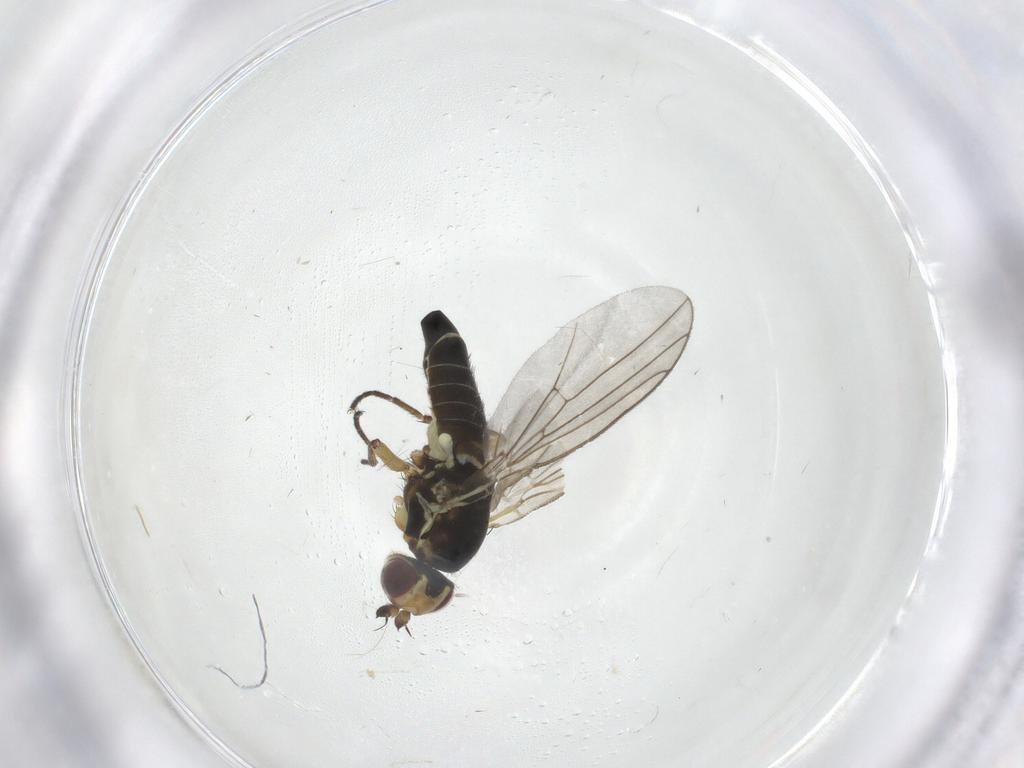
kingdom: Animalia
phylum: Arthropoda
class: Insecta
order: Diptera
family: Agromyzidae
